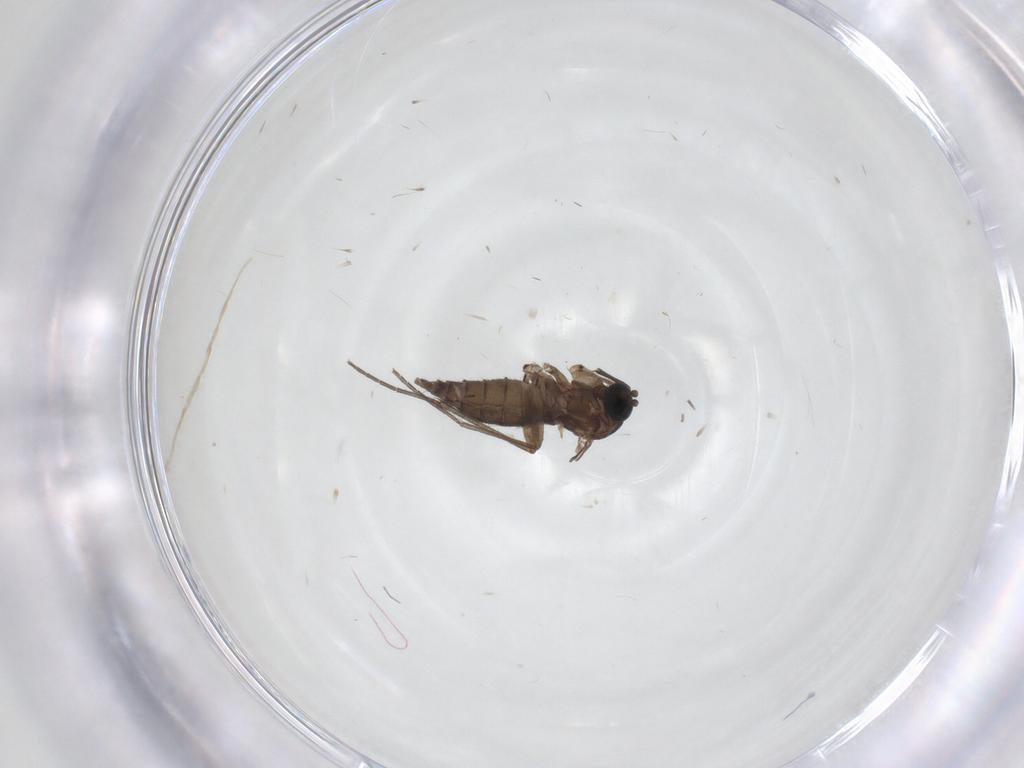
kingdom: Animalia
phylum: Arthropoda
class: Insecta
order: Diptera
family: Sciaridae
